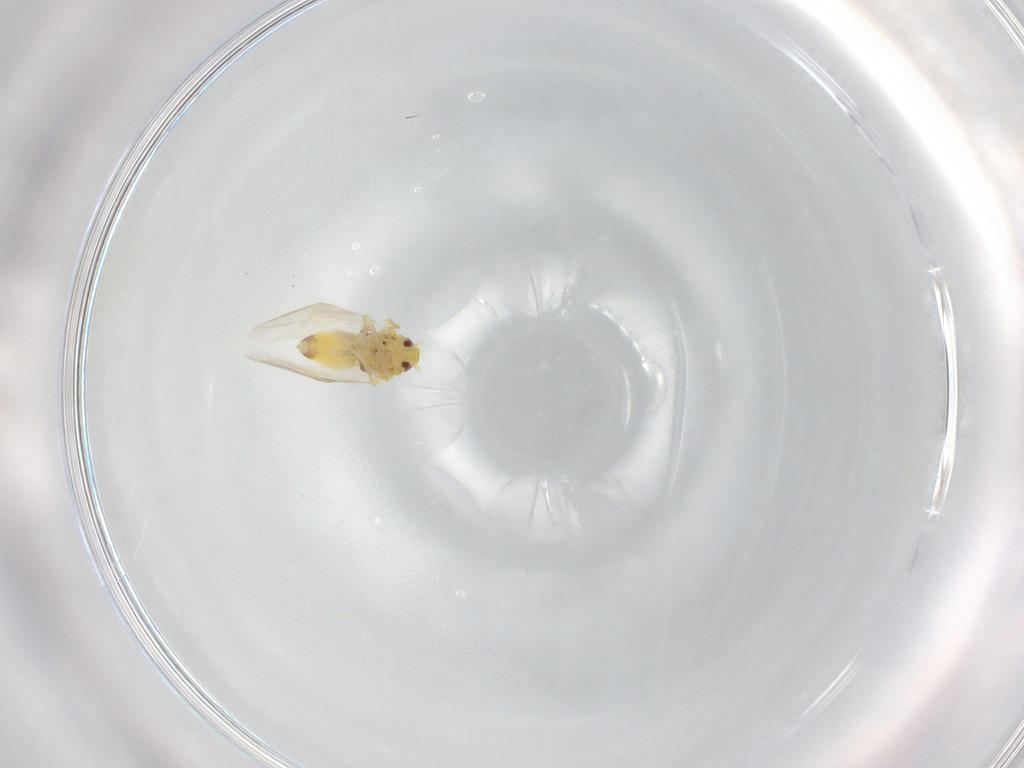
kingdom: Animalia
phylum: Arthropoda
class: Insecta
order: Hemiptera
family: Aleyrodidae
